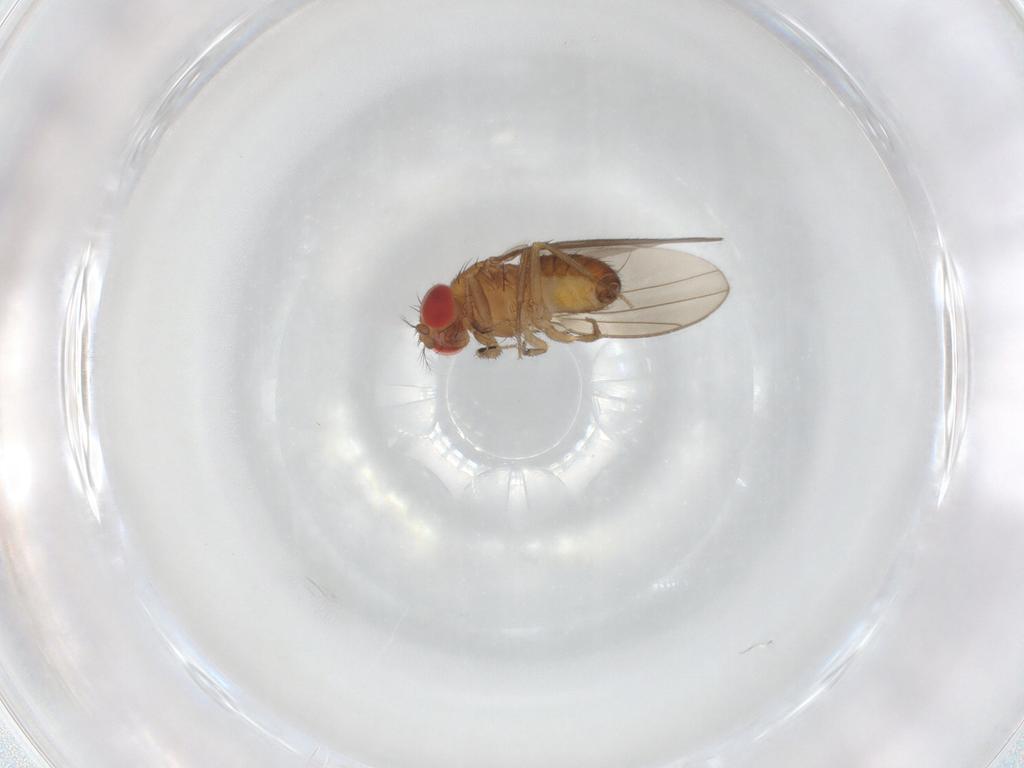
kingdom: Animalia
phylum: Arthropoda
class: Insecta
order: Diptera
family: Drosophilidae
